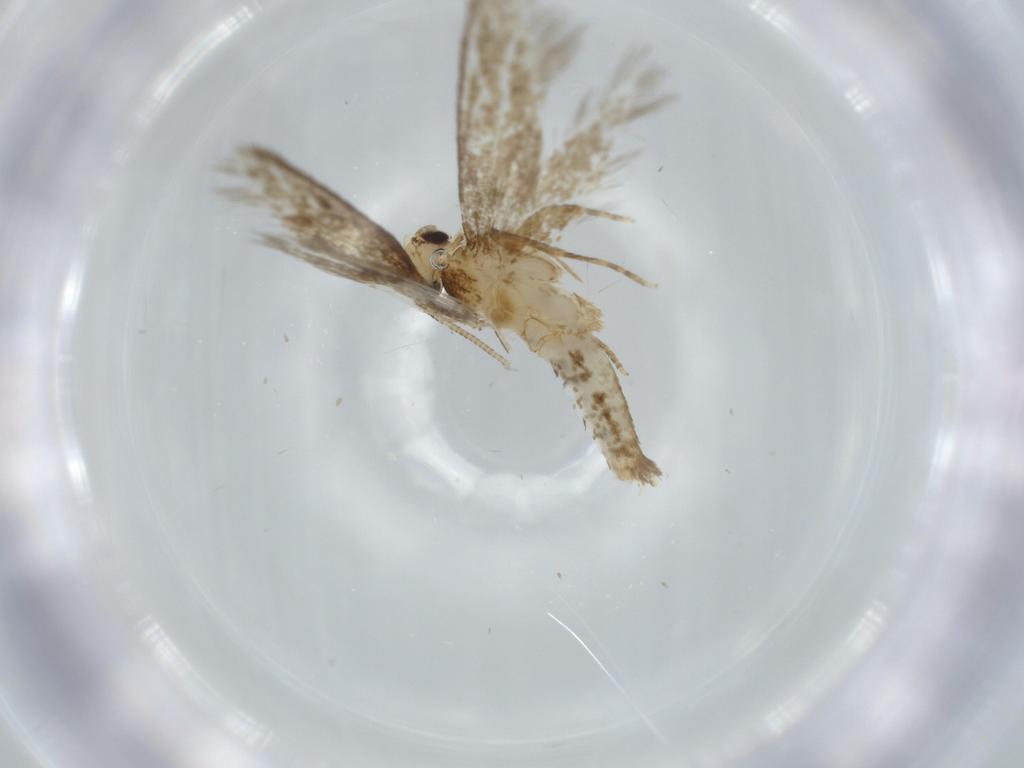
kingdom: Animalia
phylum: Arthropoda
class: Insecta
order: Lepidoptera
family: Tineidae
